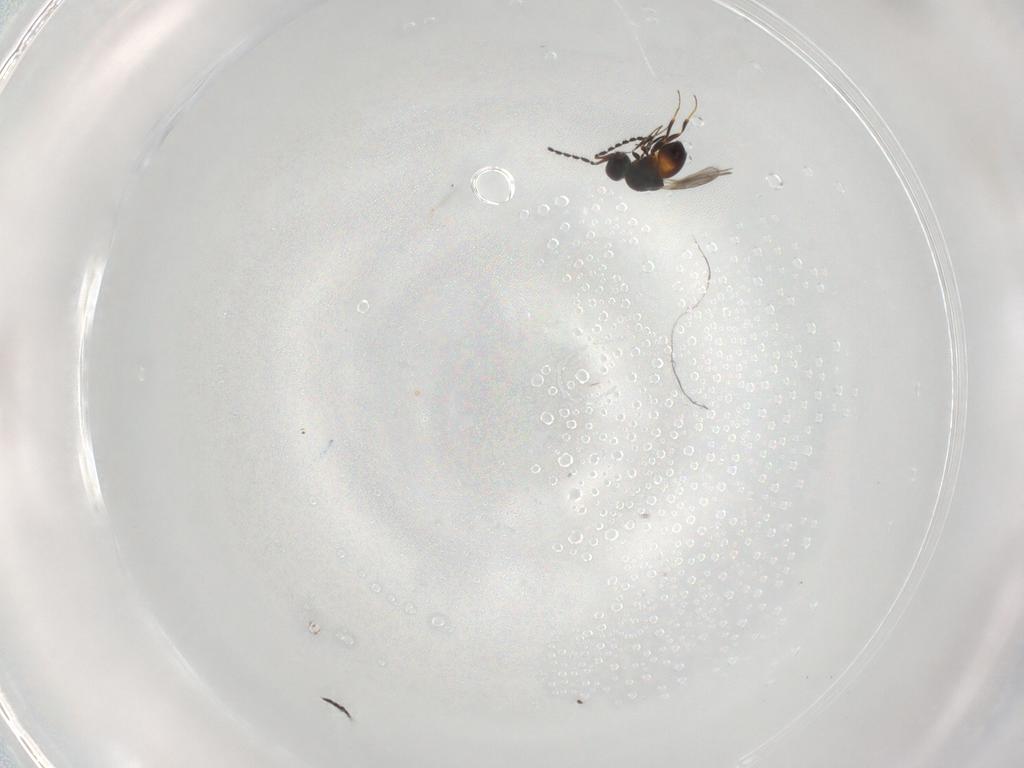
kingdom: Animalia
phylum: Arthropoda
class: Insecta
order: Hymenoptera
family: Ceraphronidae
